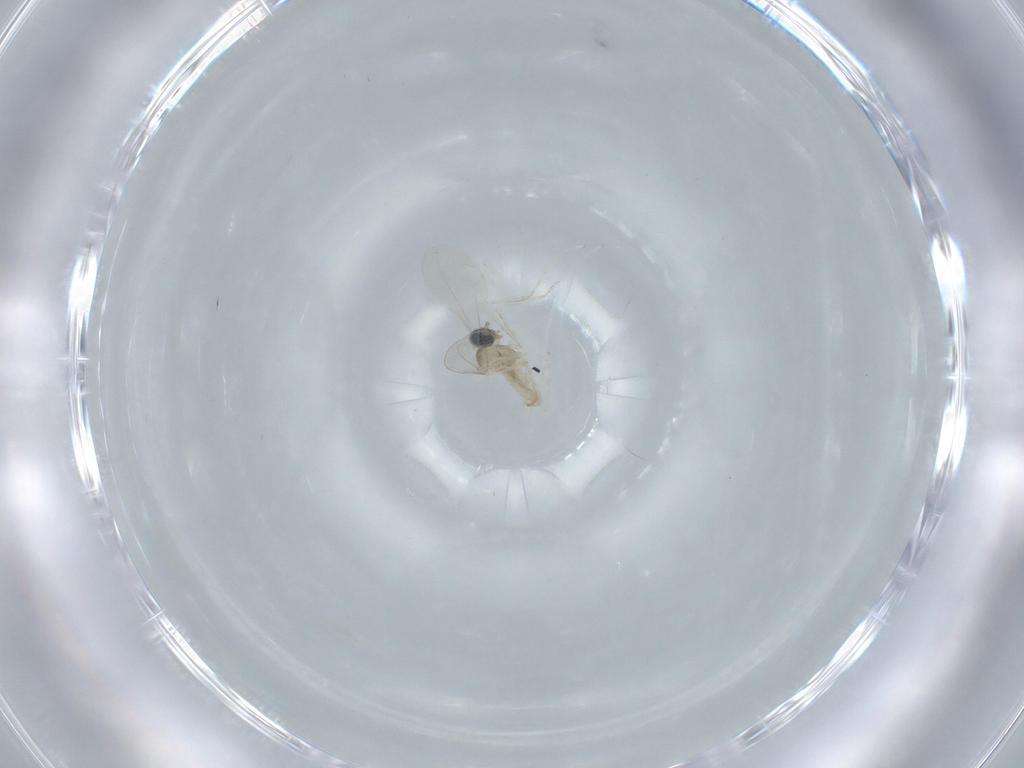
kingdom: Animalia
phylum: Arthropoda
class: Insecta
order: Diptera
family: Cecidomyiidae
